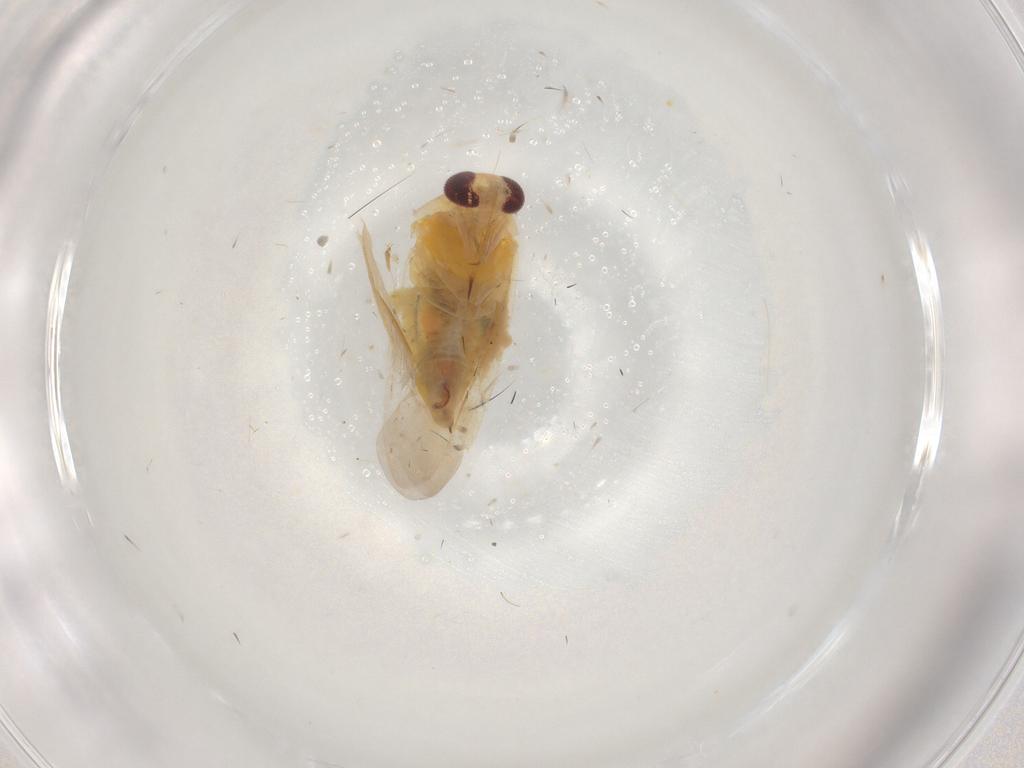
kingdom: Animalia
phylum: Arthropoda
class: Insecta
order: Hemiptera
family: Miridae
